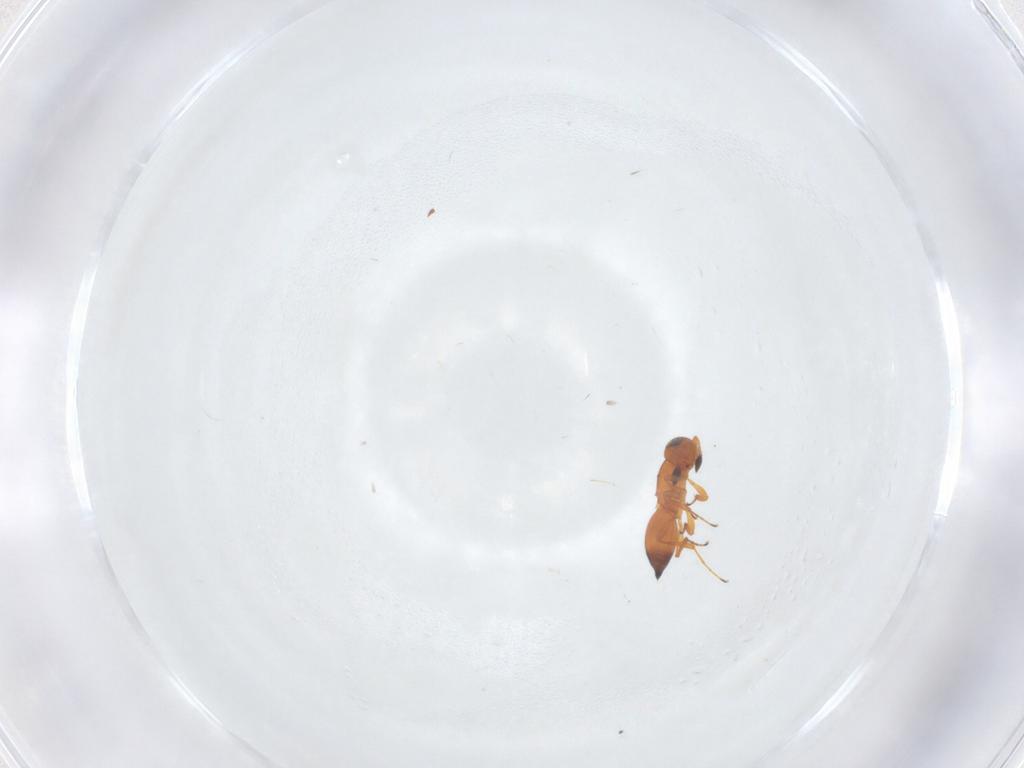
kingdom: Animalia
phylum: Arthropoda
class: Insecta
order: Hymenoptera
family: Platygastridae
